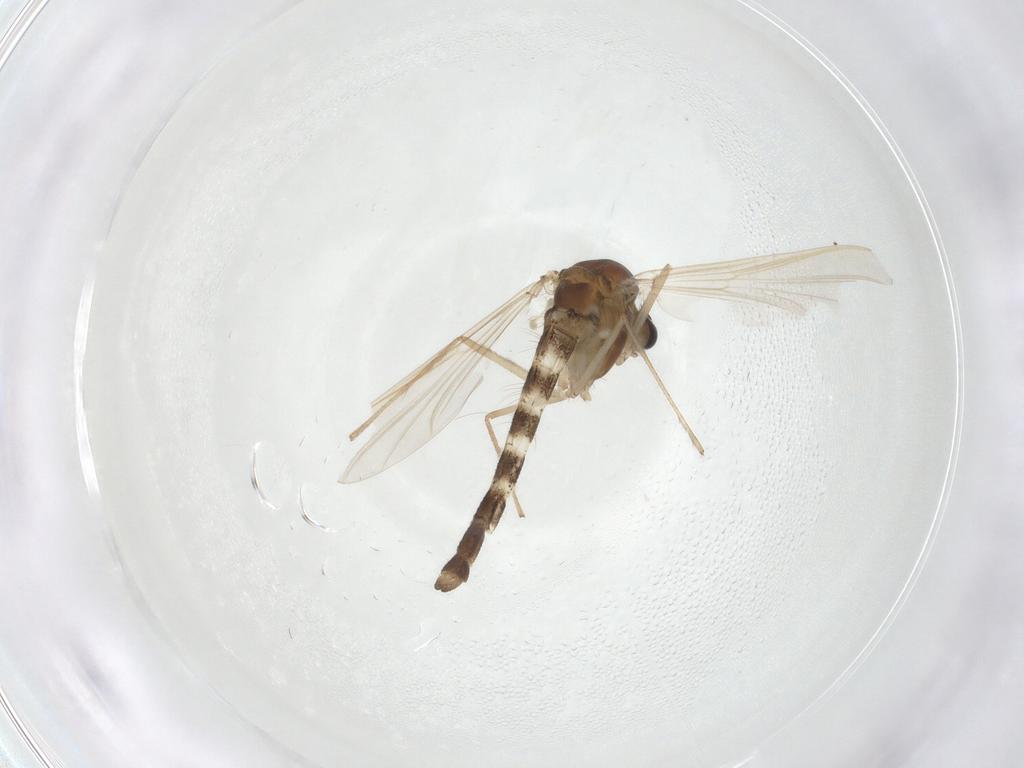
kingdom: Animalia
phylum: Arthropoda
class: Insecta
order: Diptera
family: Chironomidae
